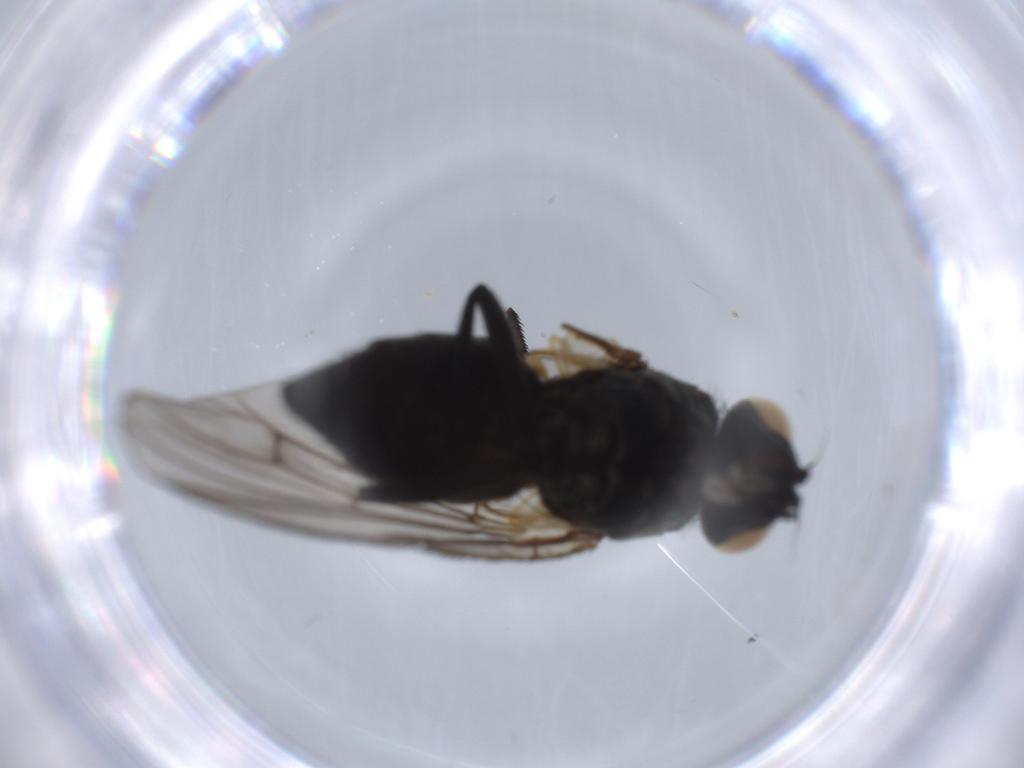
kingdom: Animalia
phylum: Arthropoda
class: Insecta
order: Diptera
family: Muscidae
